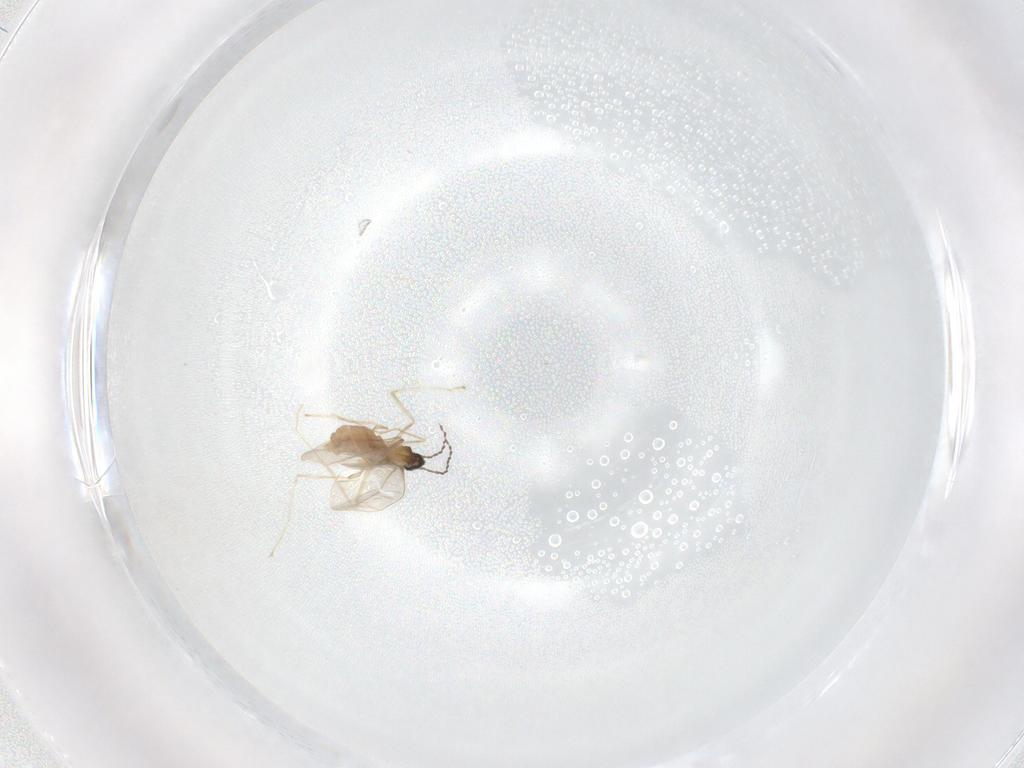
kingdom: Animalia
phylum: Arthropoda
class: Insecta
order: Diptera
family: Cecidomyiidae
